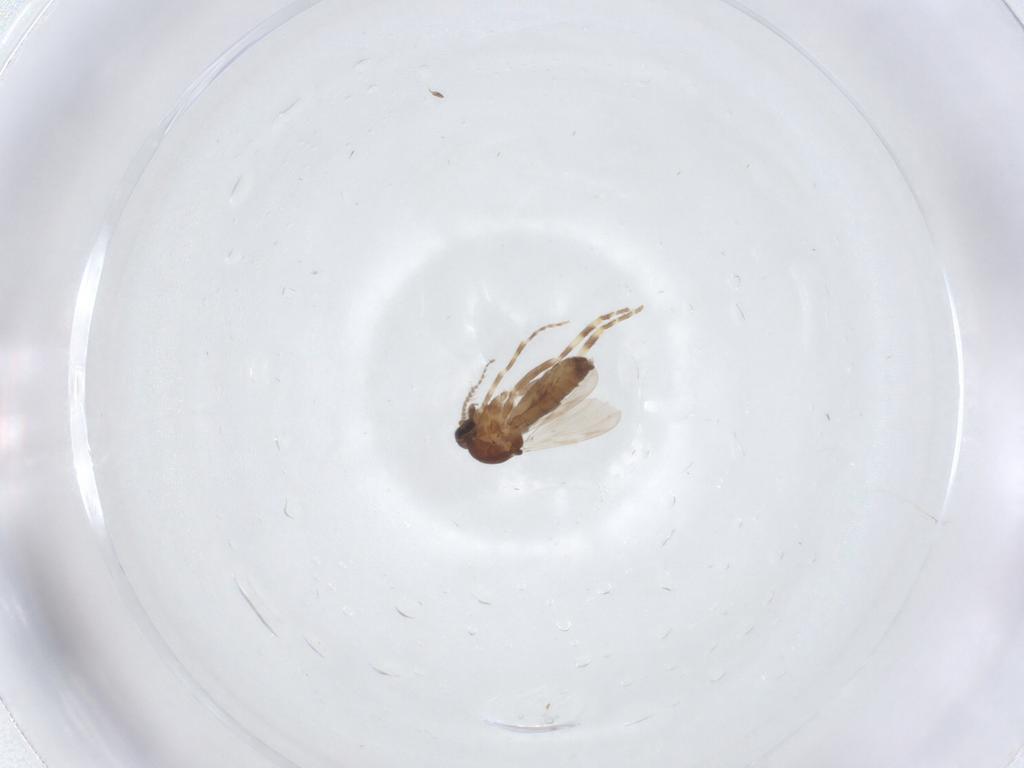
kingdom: Animalia
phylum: Arthropoda
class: Insecta
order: Diptera
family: Ceratopogonidae
